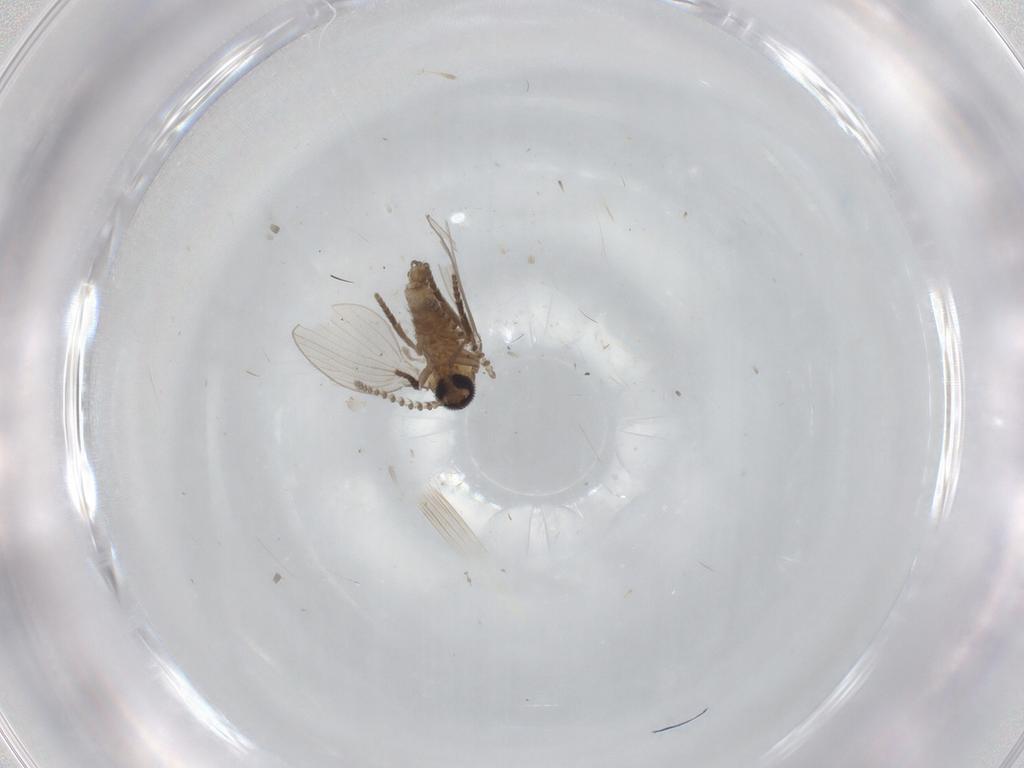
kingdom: Animalia
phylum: Arthropoda
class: Insecta
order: Diptera
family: Psychodidae
